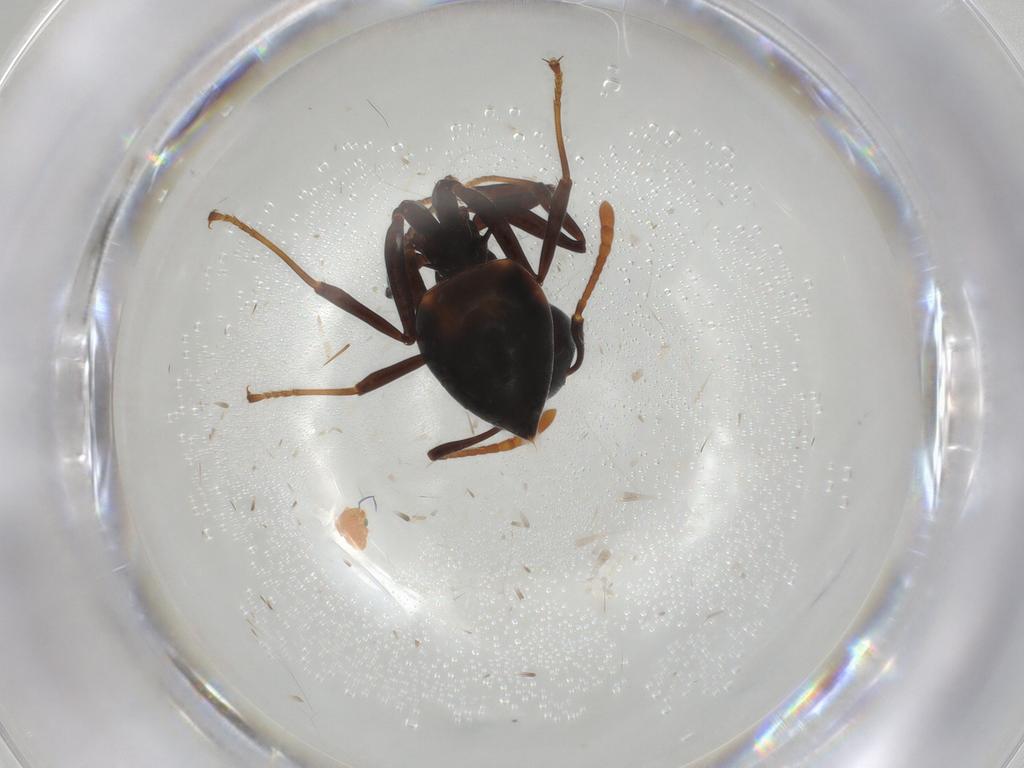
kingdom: Animalia
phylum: Arthropoda
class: Insecta
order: Hymenoptera
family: Formicidae
